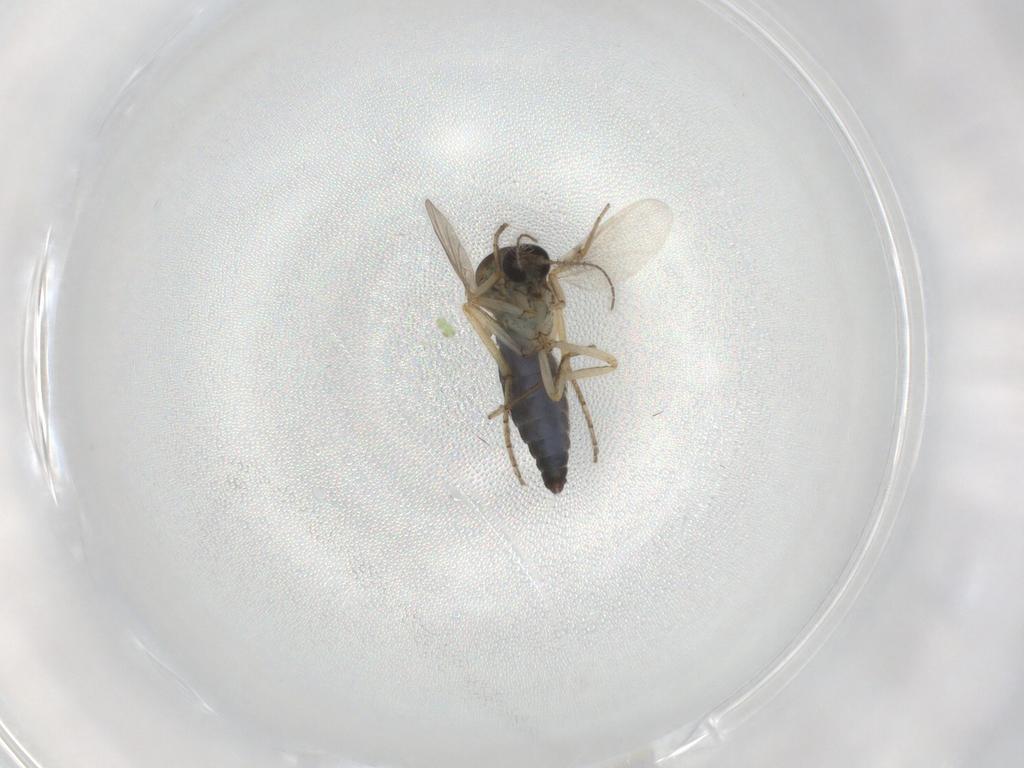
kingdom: Animalia
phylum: Arthropoda
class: Insecta
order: Diptera
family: Ceratopogonidae
